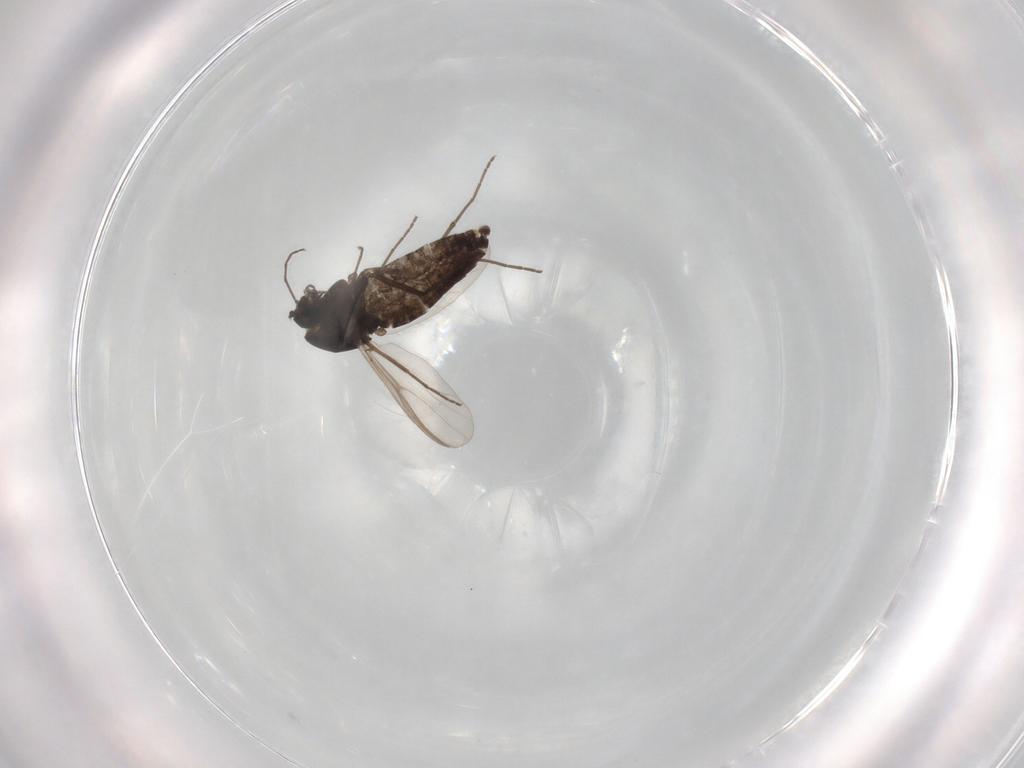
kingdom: Animalia
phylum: Arthropoda
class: Insecta
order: Diptera
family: Chironomidae
